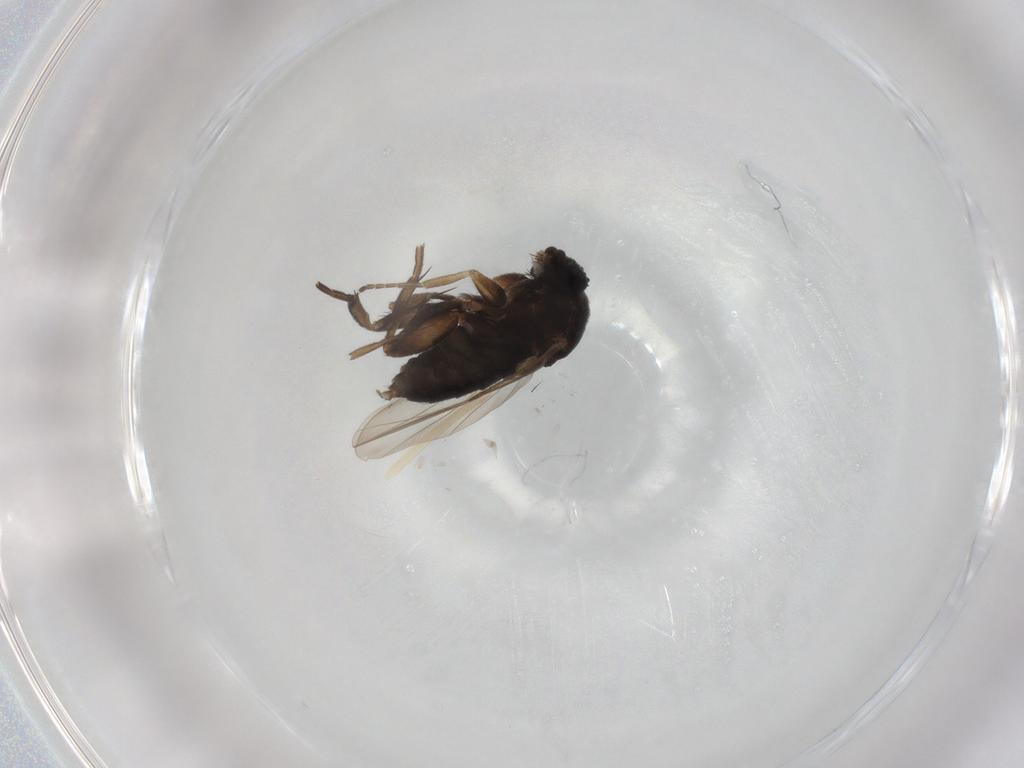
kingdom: Animalia
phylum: Arthropoda
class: Insecta
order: Diptera
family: Phoridae
